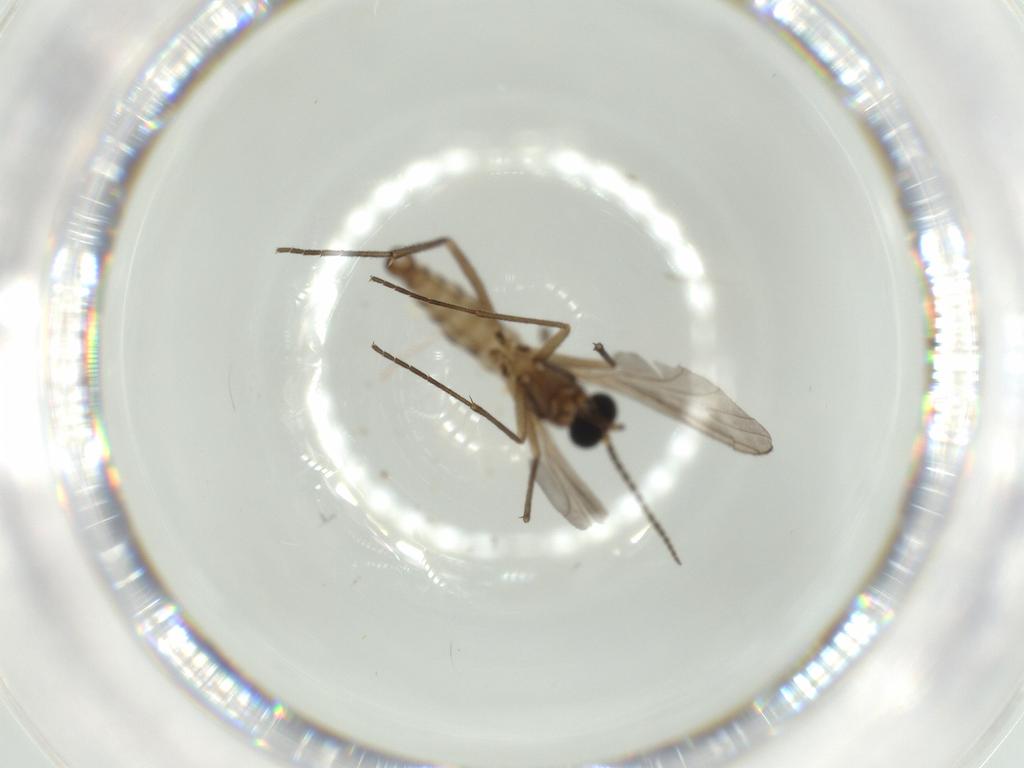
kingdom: Animalia
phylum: Arthropoda
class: Insecta
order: Diptera
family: Sciaridae
